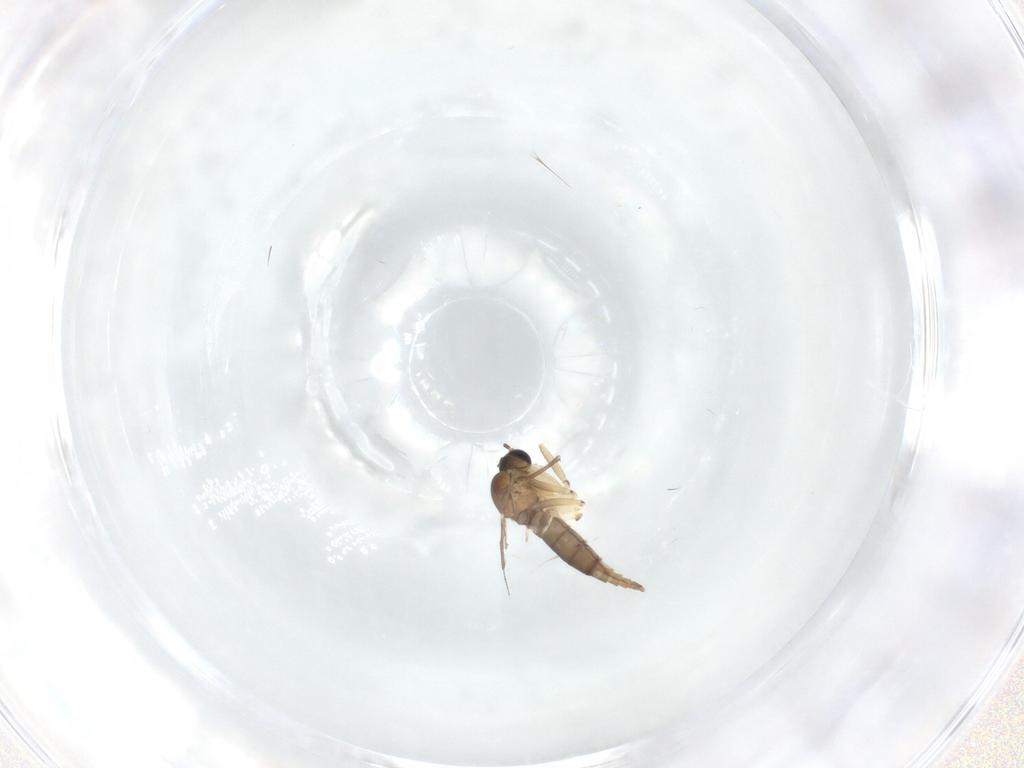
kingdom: Animalia
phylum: Arthropoda
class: Insecta
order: Diptera
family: Sciaridae
